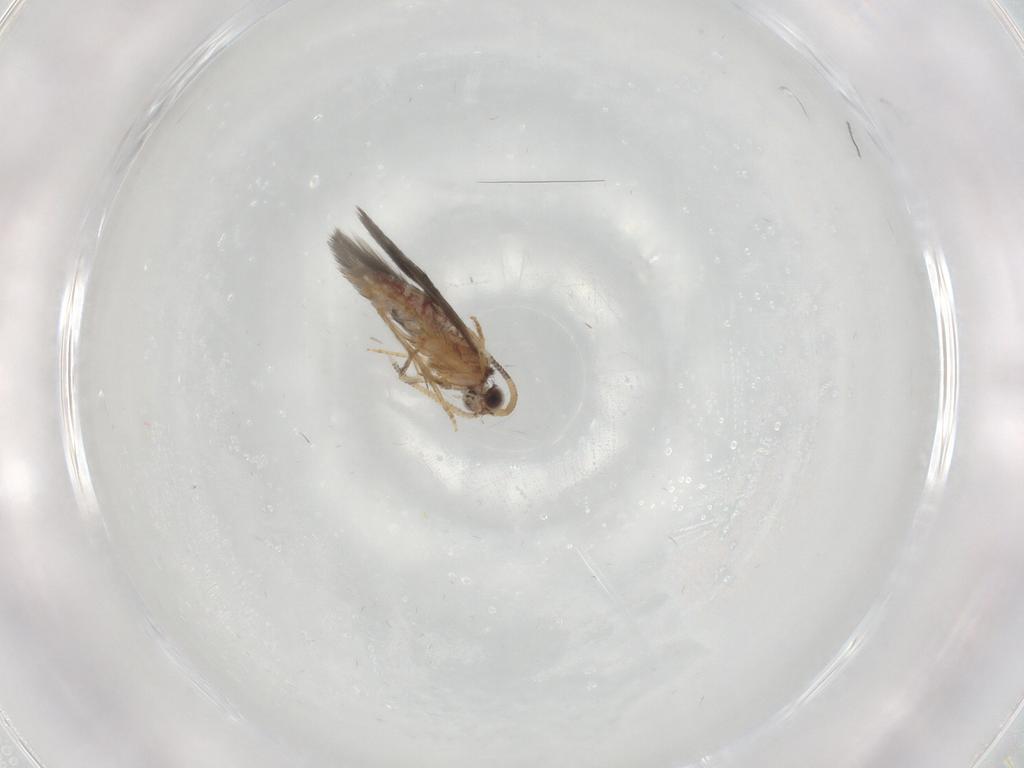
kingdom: Animalia
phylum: Arthropoda
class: Insecta
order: Trichoptera
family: Hydroptilidae
